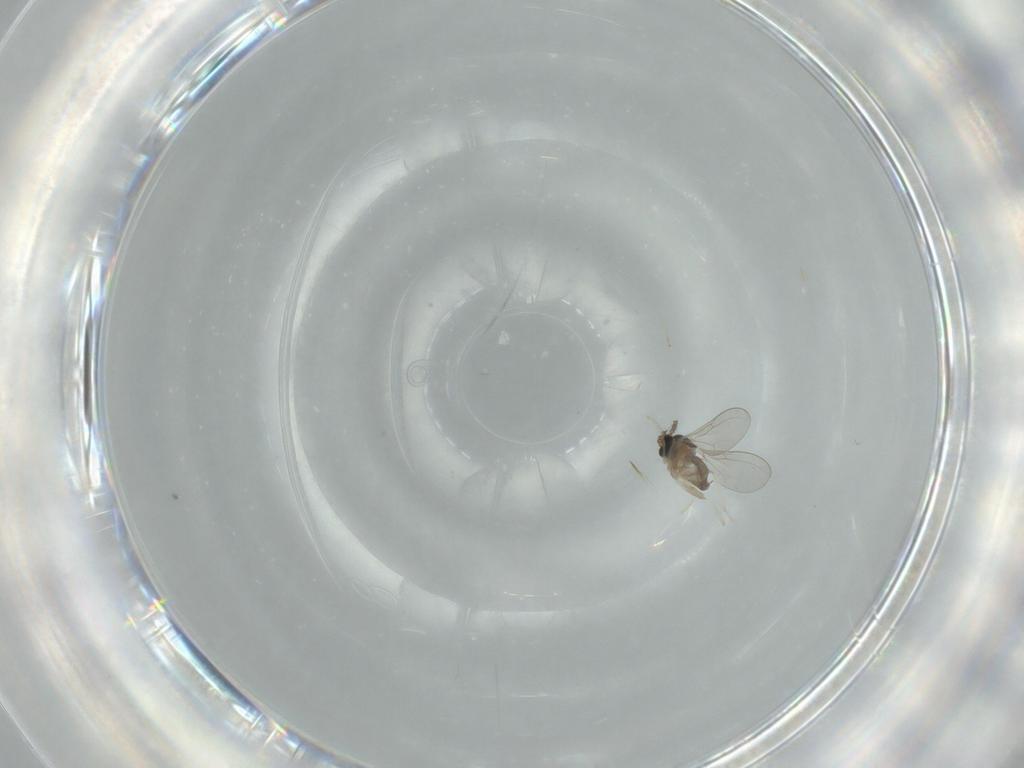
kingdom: Animalia
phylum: Arthropoda
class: Insecta
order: Diptera
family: Cecidomyiidae
